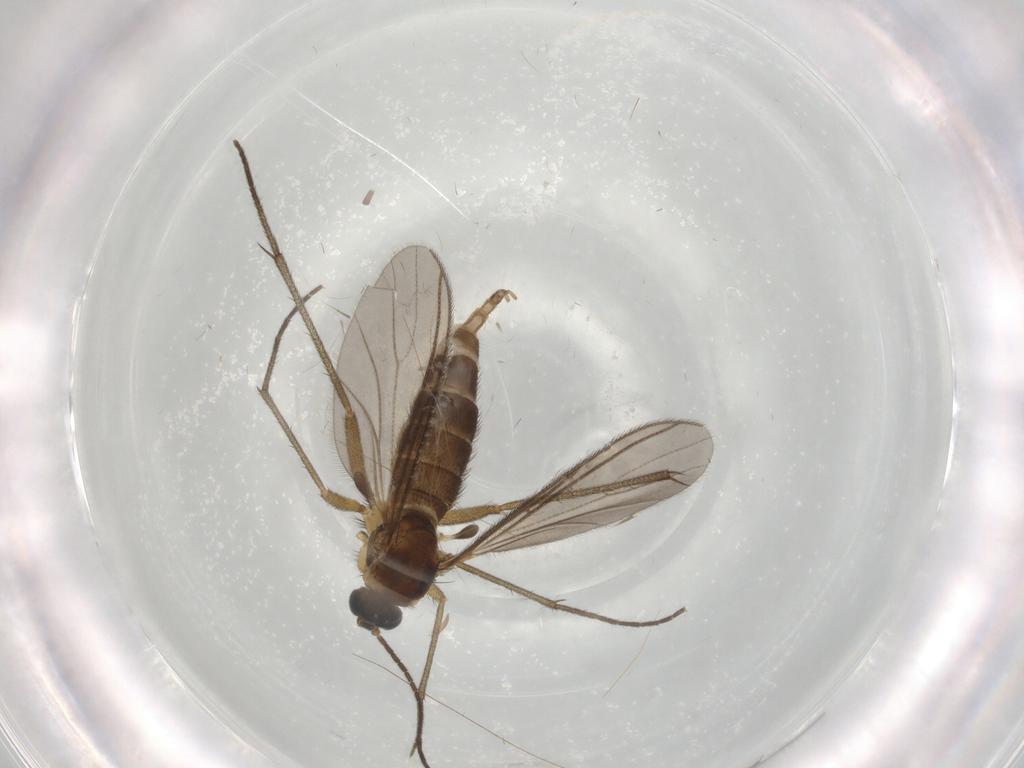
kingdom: Animalia
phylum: Arthropoda
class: Insecta
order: Diptera
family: Sciaridae
